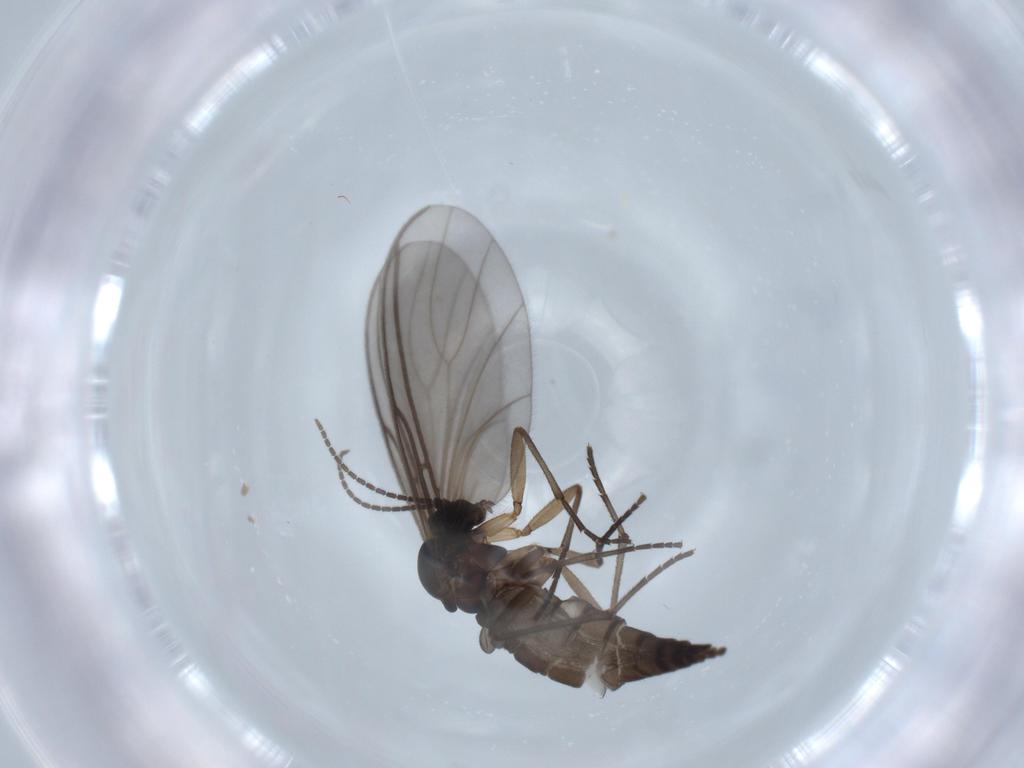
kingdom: Animalia
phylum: Arthropoda
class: Insecta
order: Diptera
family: Sciaridae
